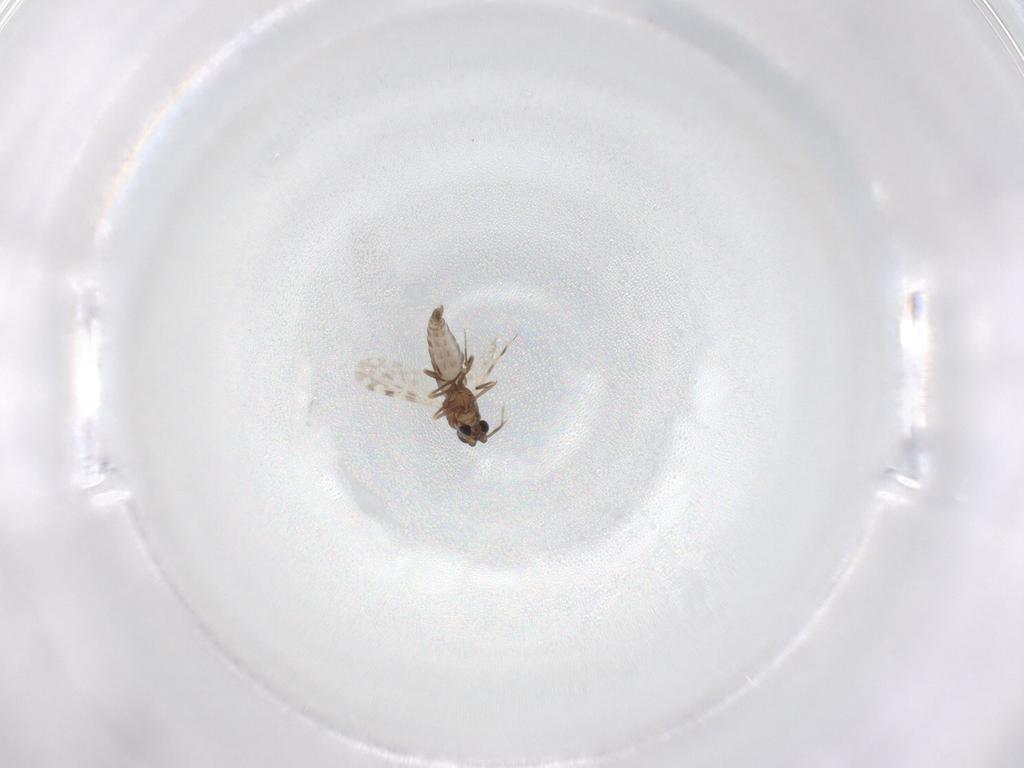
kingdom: Animalia
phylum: Arthropoda
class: Insecta
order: Diptera
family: Ceratopogonidae
